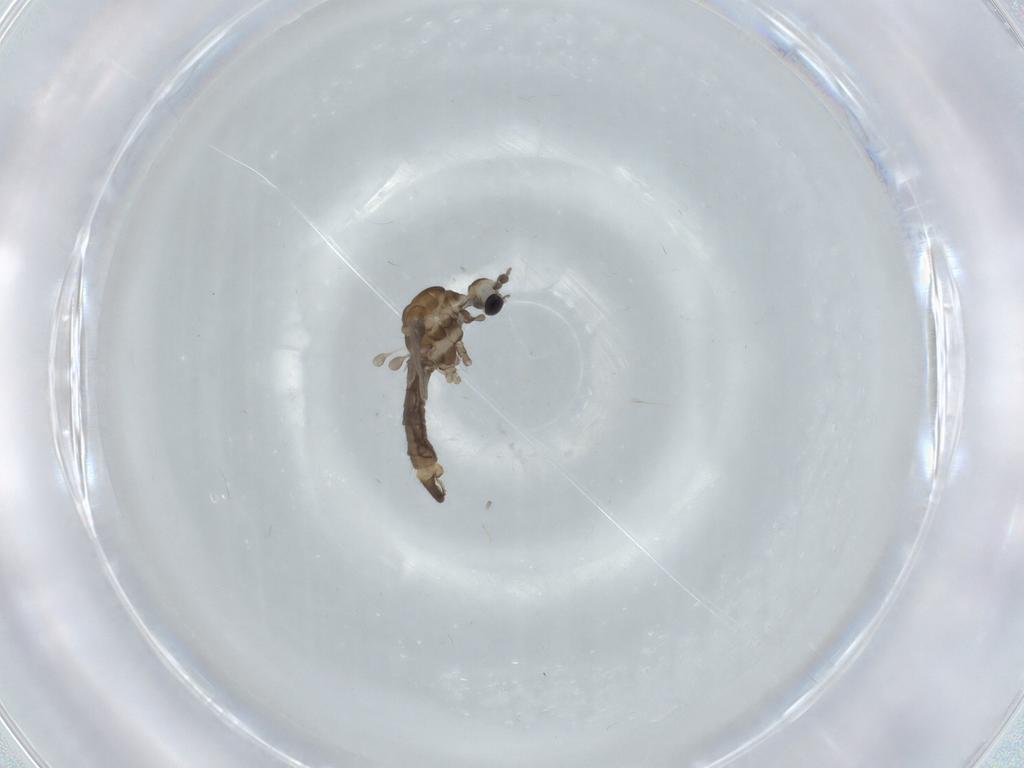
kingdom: Animalia
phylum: Arthropoda
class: Insecta
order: Diptera
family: Limoniidae
